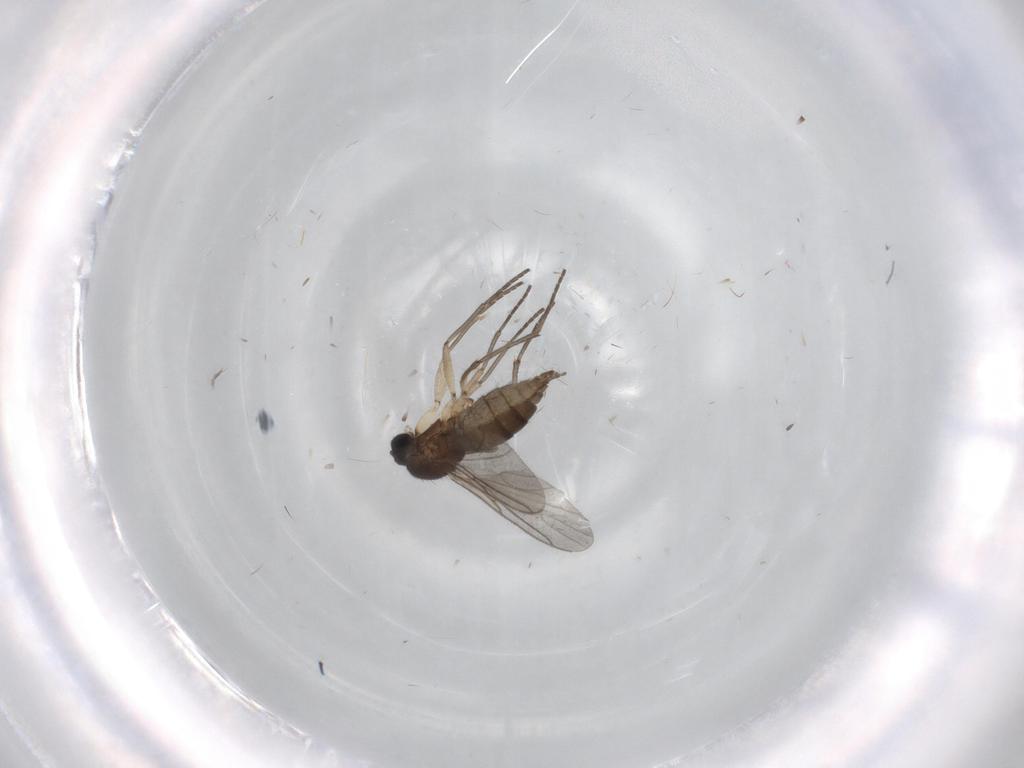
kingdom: Animalia
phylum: Arthropoda
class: Insecta
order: Diptera
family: Sciaridae
